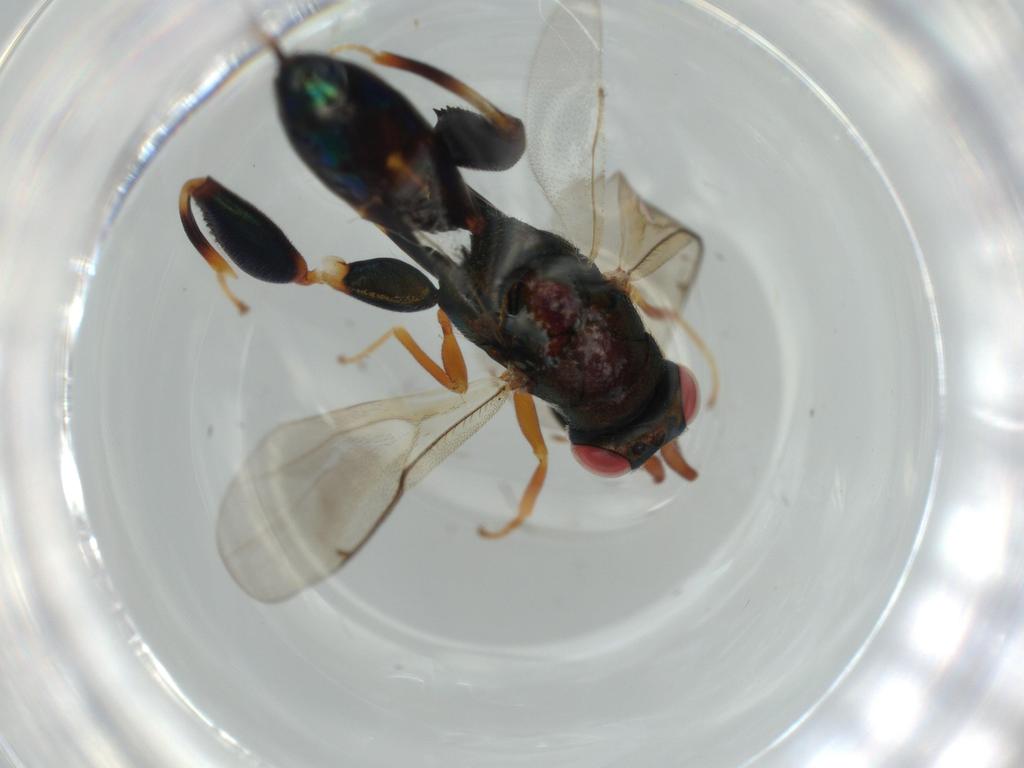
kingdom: Animalia
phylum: Arthropoda
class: Insecta
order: Hymenoptera
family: Diapriidae
